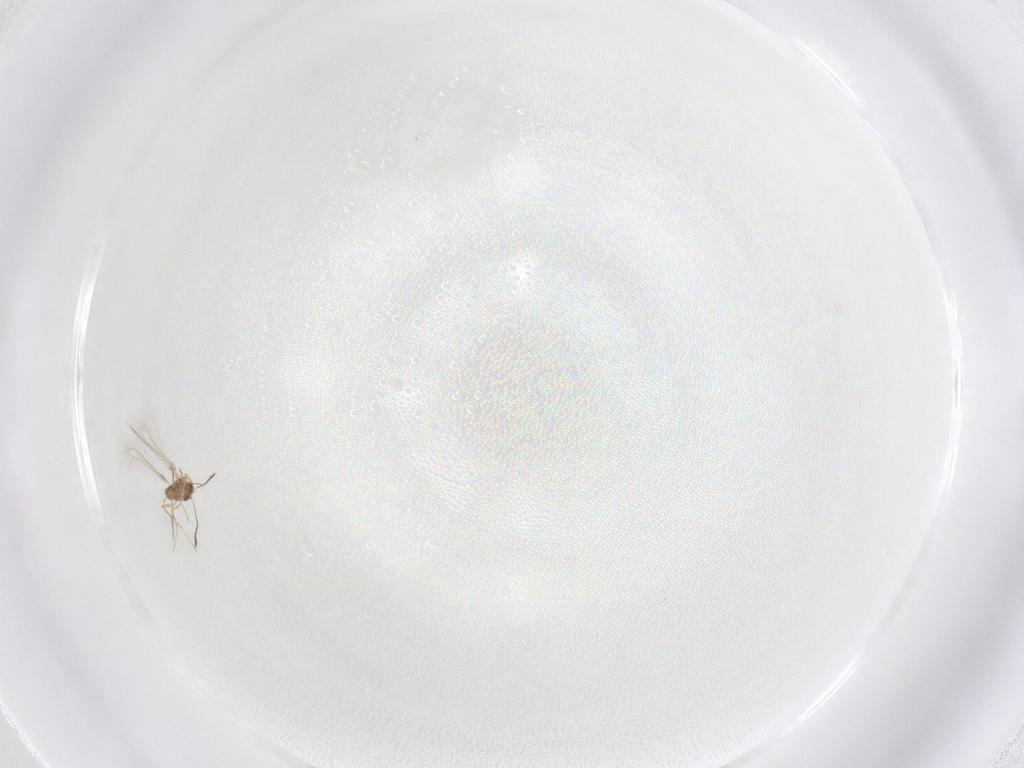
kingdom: Animalia
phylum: Arthropoda
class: Insecta
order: Hymenoptera
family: Mymaridae
